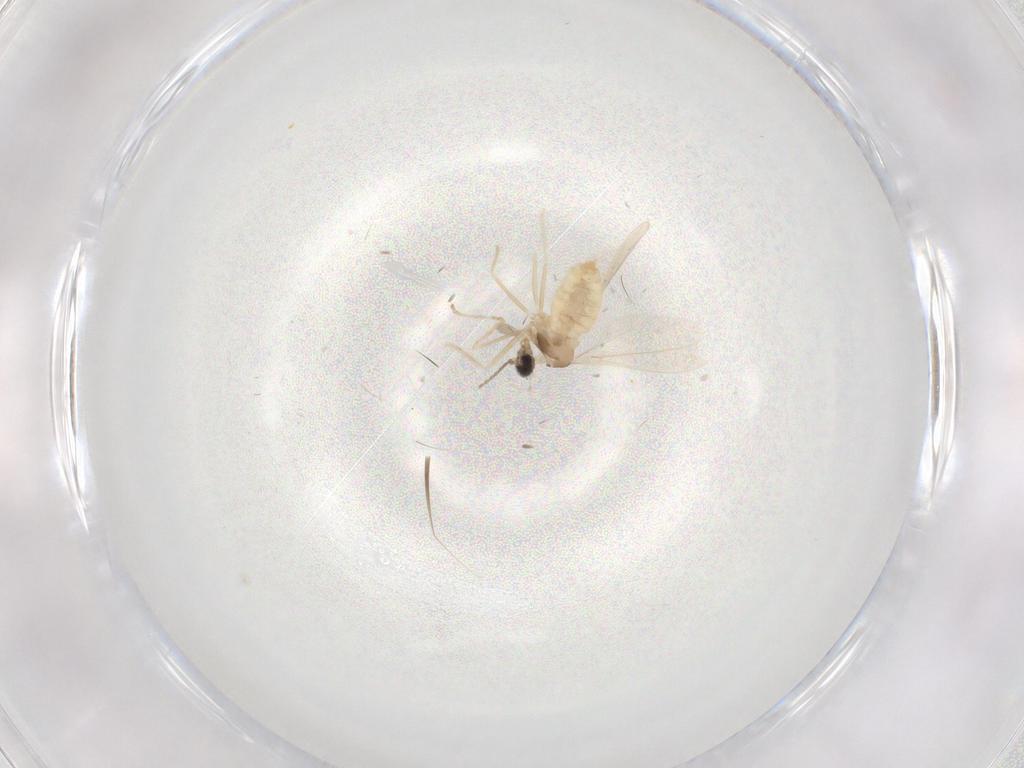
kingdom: Animalia
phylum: Arthropoda
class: Insecta
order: Diptera
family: Cecidomyiidae
